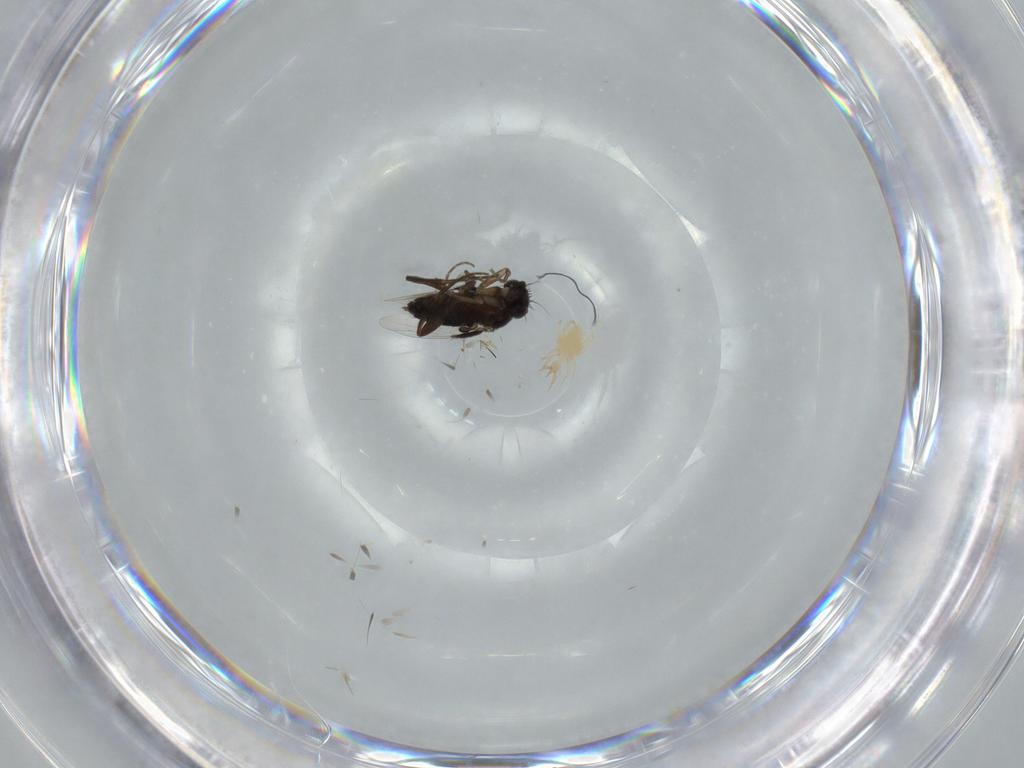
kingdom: Animalia
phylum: Arthropoda
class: Insecta
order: Diptera
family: Phoridae
